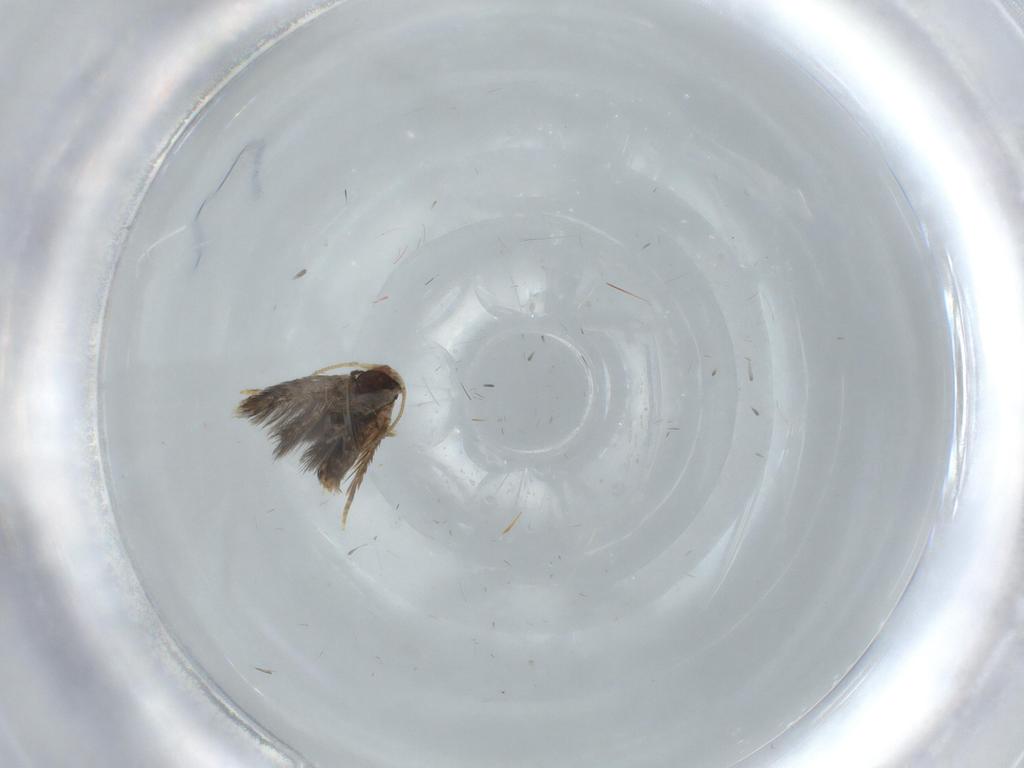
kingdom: Animalia
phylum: Arthropoda
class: Insecta
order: Lepidoptera
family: Nepticulidae
